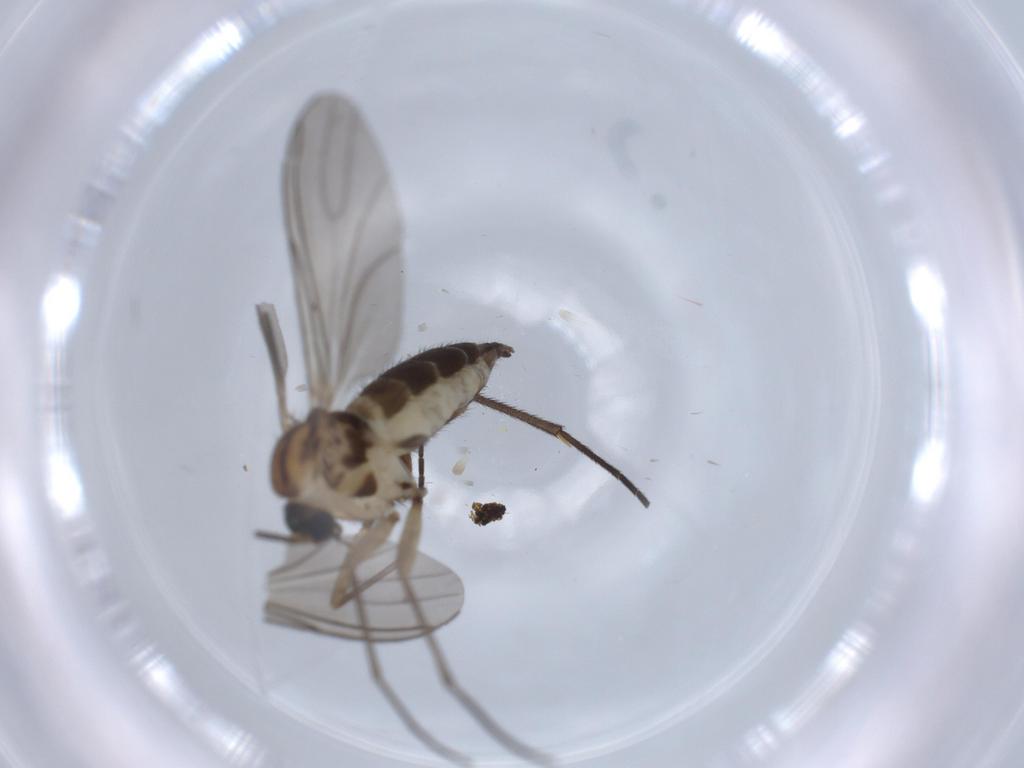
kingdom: Animalia
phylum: Arthropoda
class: Insecta
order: Diptera
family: Sciaridae
